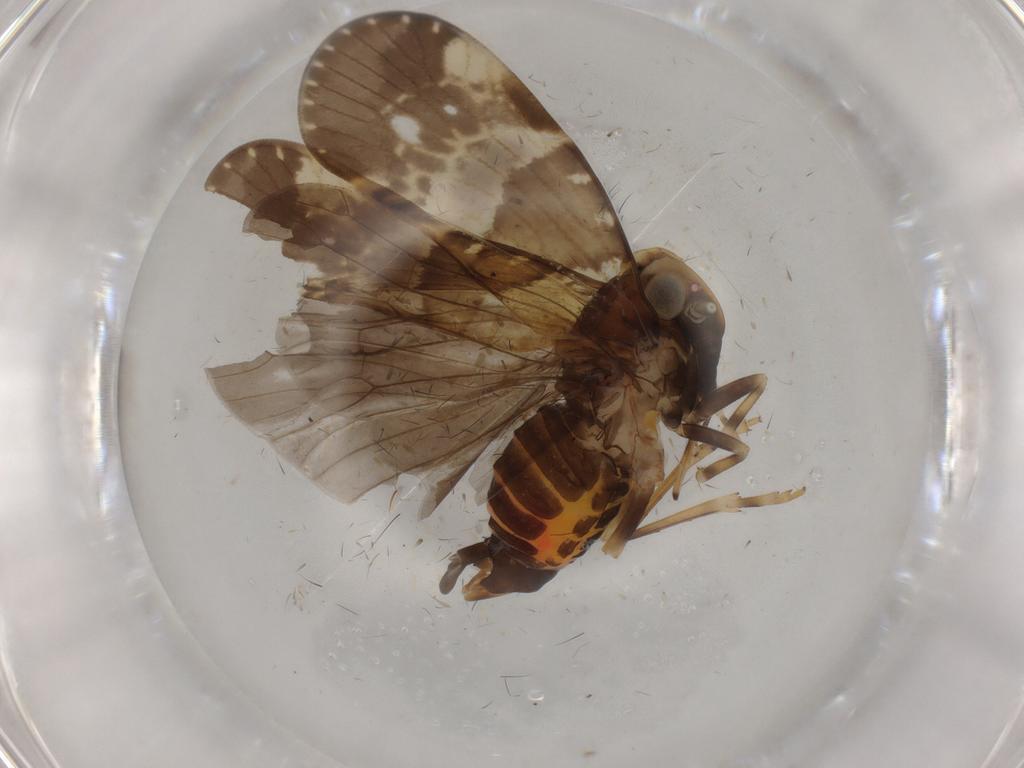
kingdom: Animalia
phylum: Arthropoda
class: Insecta
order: Hemiptera
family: Cixiidae
